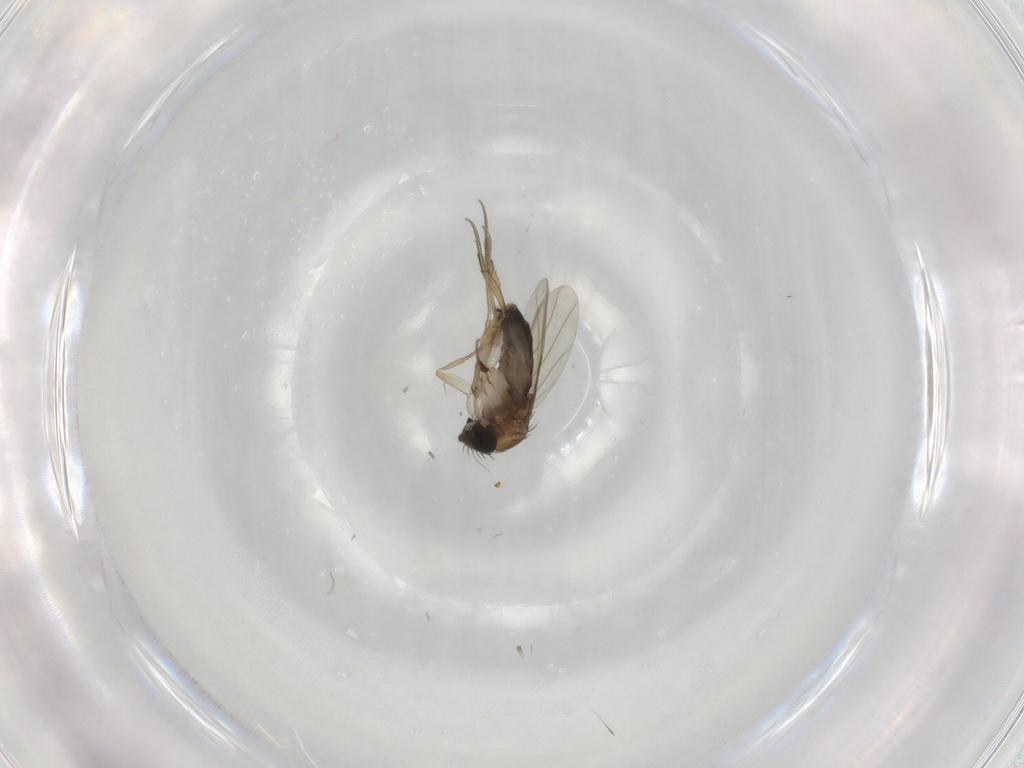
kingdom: Animalia
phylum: Arthropoda
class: Insecta
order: Diptera
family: Phoridae
